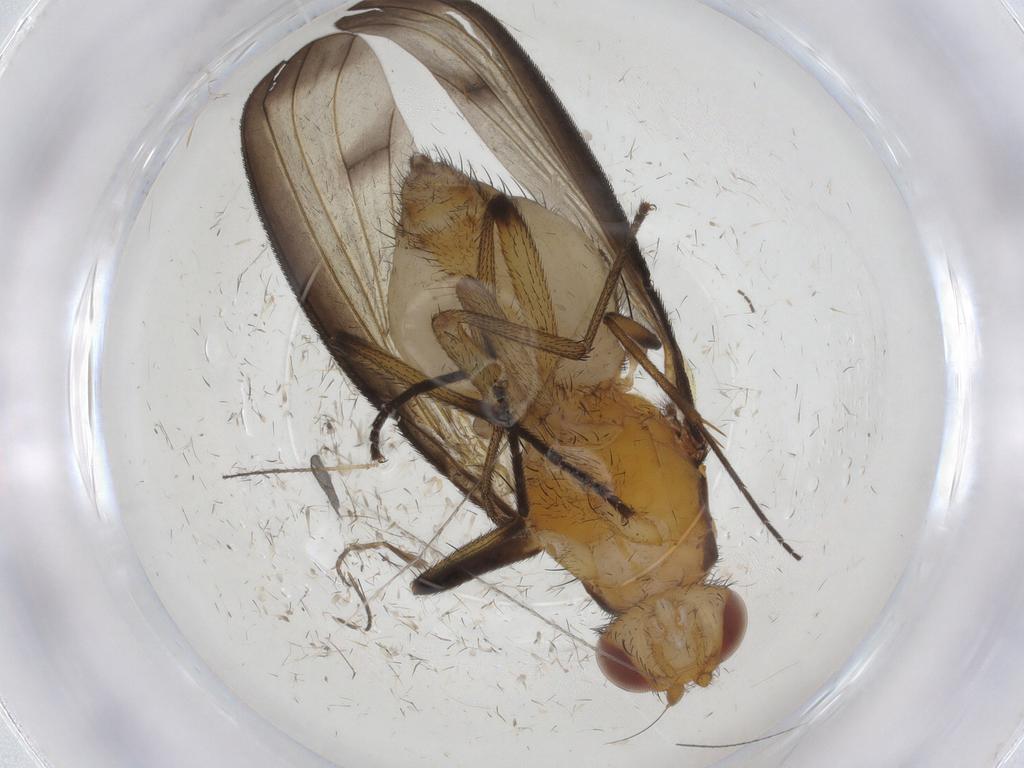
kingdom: Animalia
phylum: Arthropoda
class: Insecta
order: Diptera
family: Heleomyzidae
